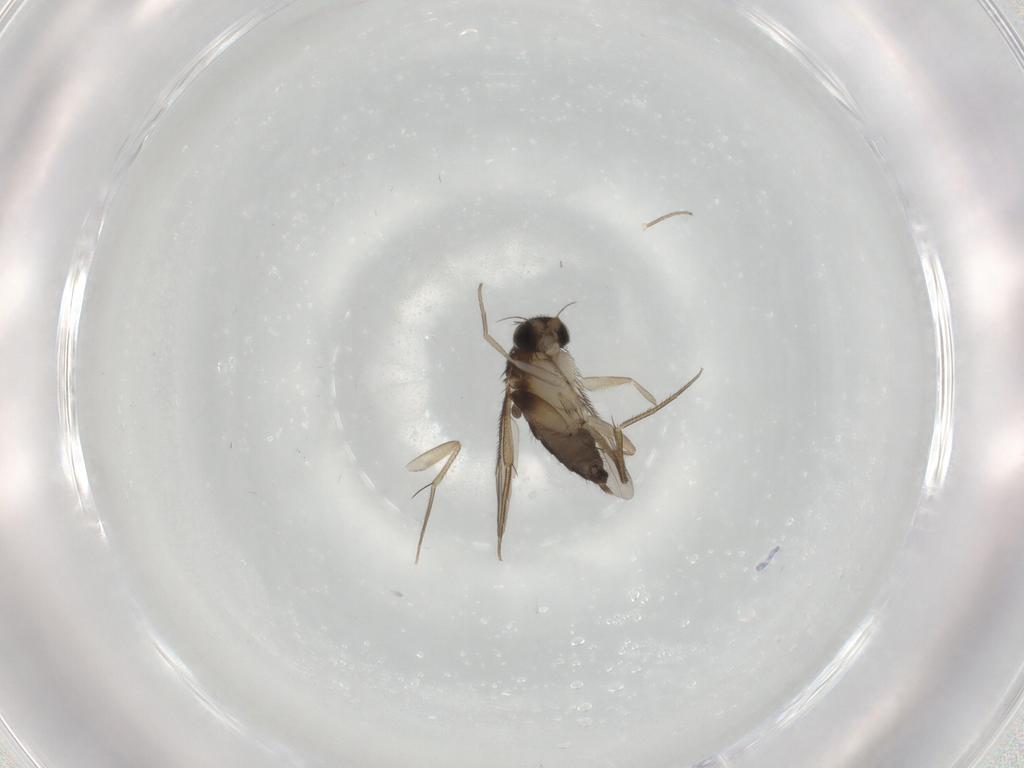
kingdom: Animalia
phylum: Arthropoda
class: Insecta
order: Diptera
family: Phoridae
